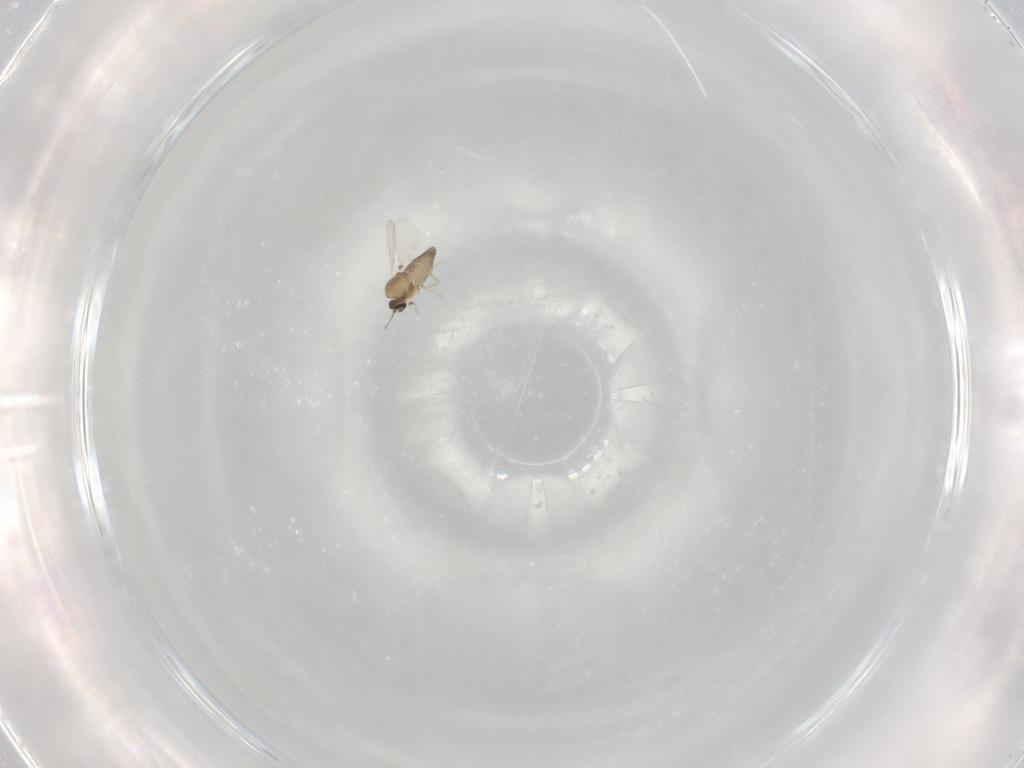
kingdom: Animalia
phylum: Arthropoda
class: Insecta
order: Diptera
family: Ceratopogonidae
